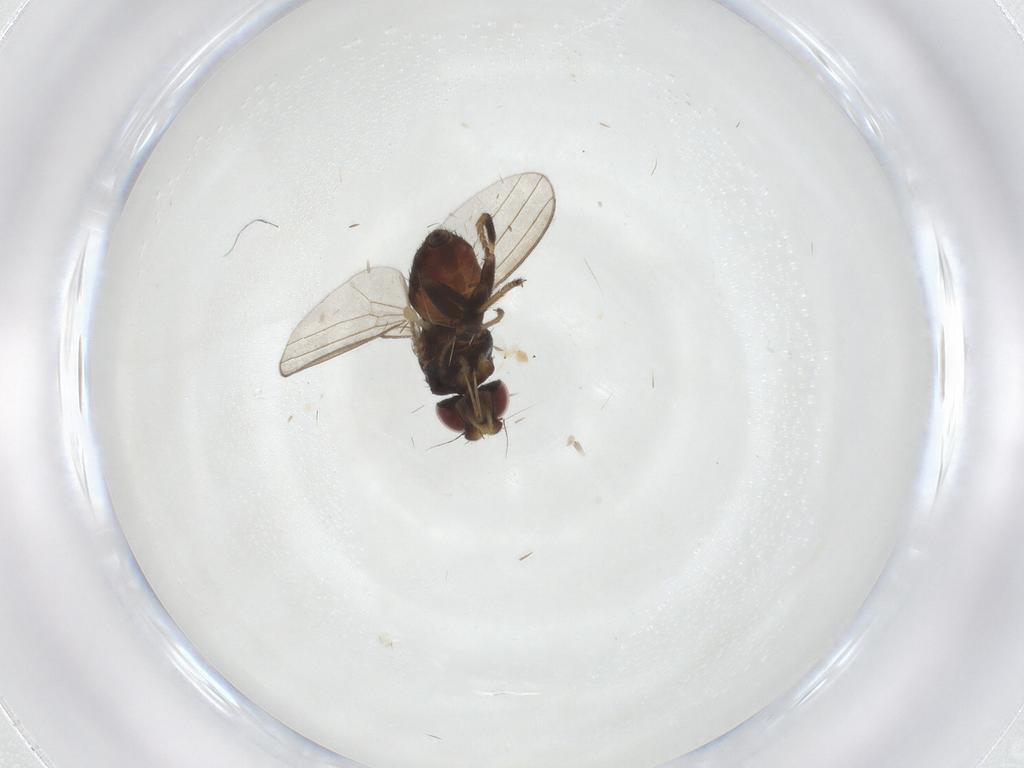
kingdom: Animalia
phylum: Arthropoda
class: Insecta
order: Diptera
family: Milichiidae
